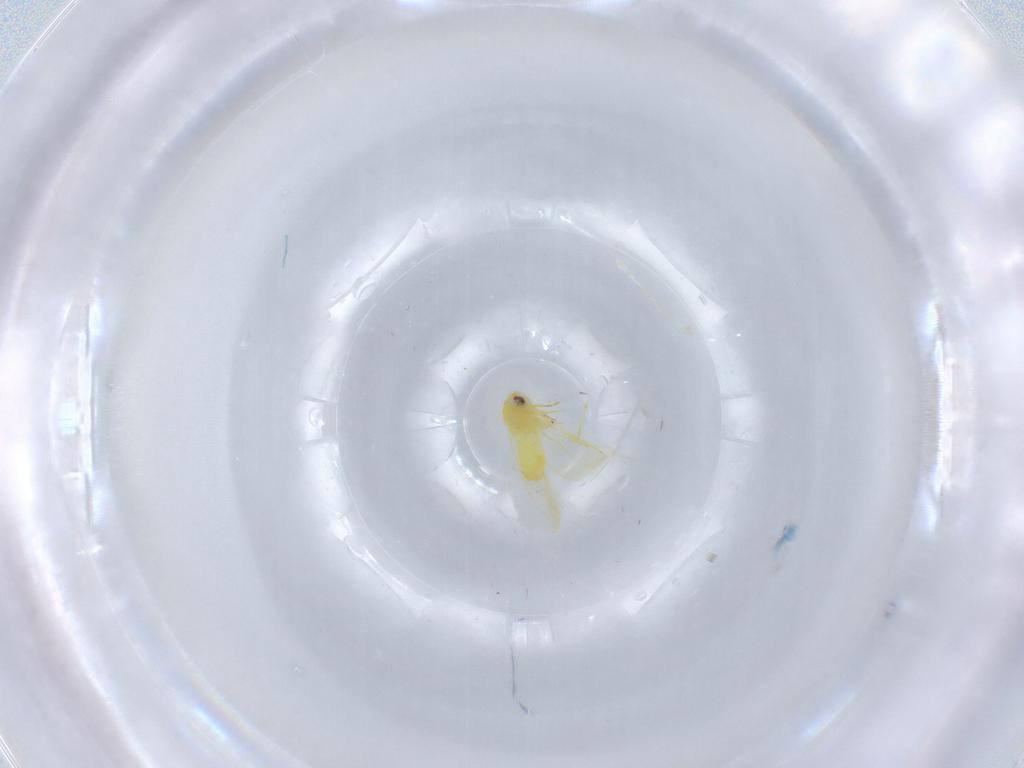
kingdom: Animalia
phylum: Arthropoda
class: Insecta
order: Hemiptera
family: Aleyrodidae
